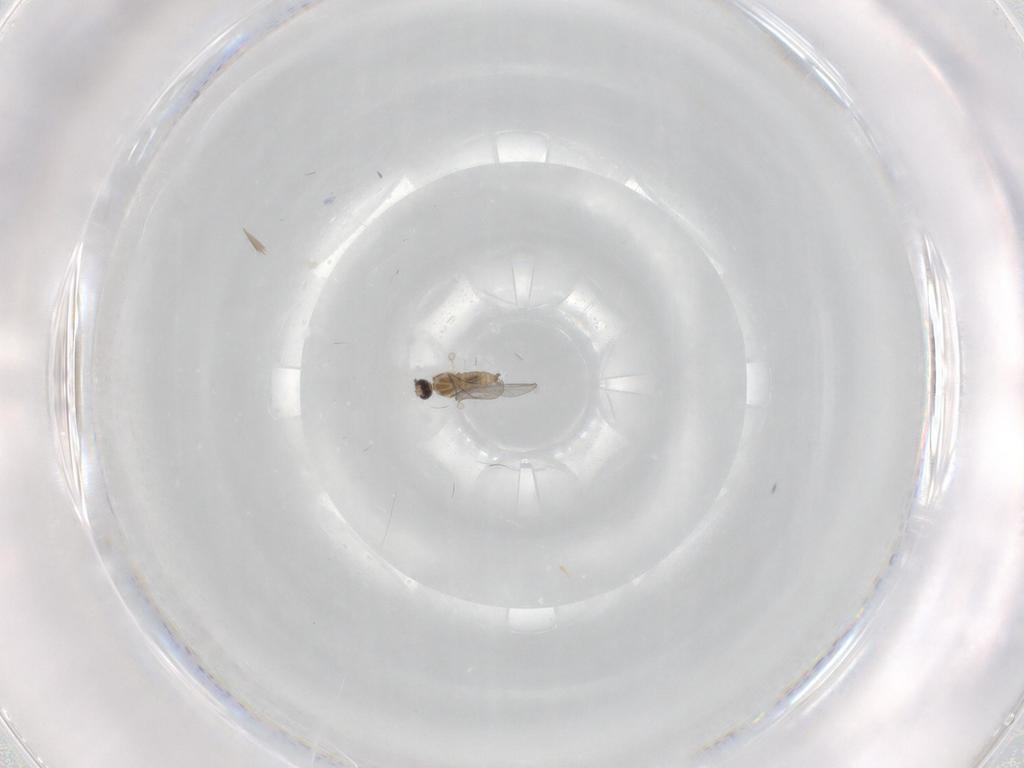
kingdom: Animalia
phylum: Arthropoda
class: Insecta
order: Diptera
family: Cecidomyiidae
